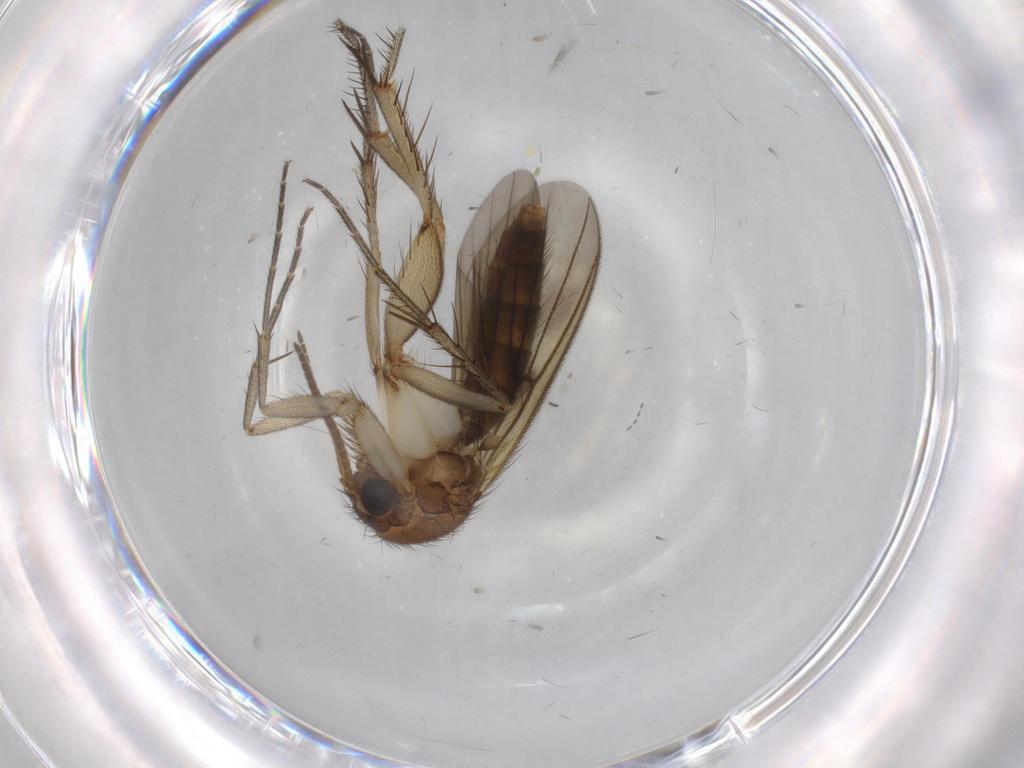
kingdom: Animalia
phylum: Arthropoda
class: Insecta
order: Diptera
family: Mycetophilidae
